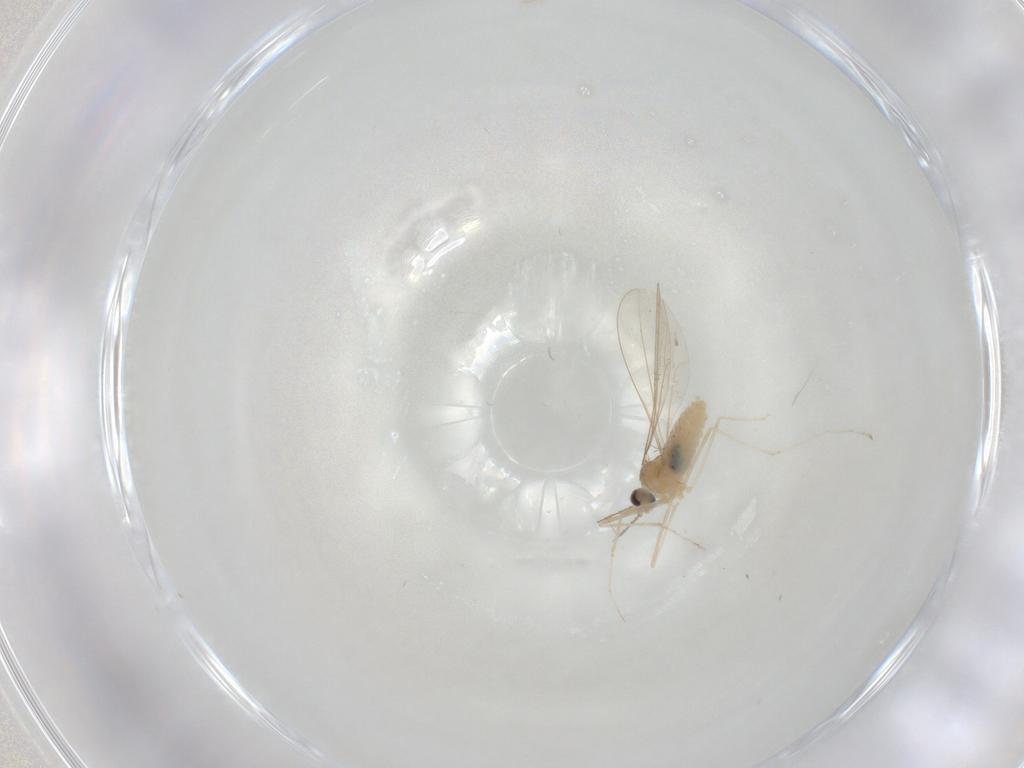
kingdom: Animalia
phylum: Arthropoda
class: Insecta
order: Diptera
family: Cecidomyiidae
